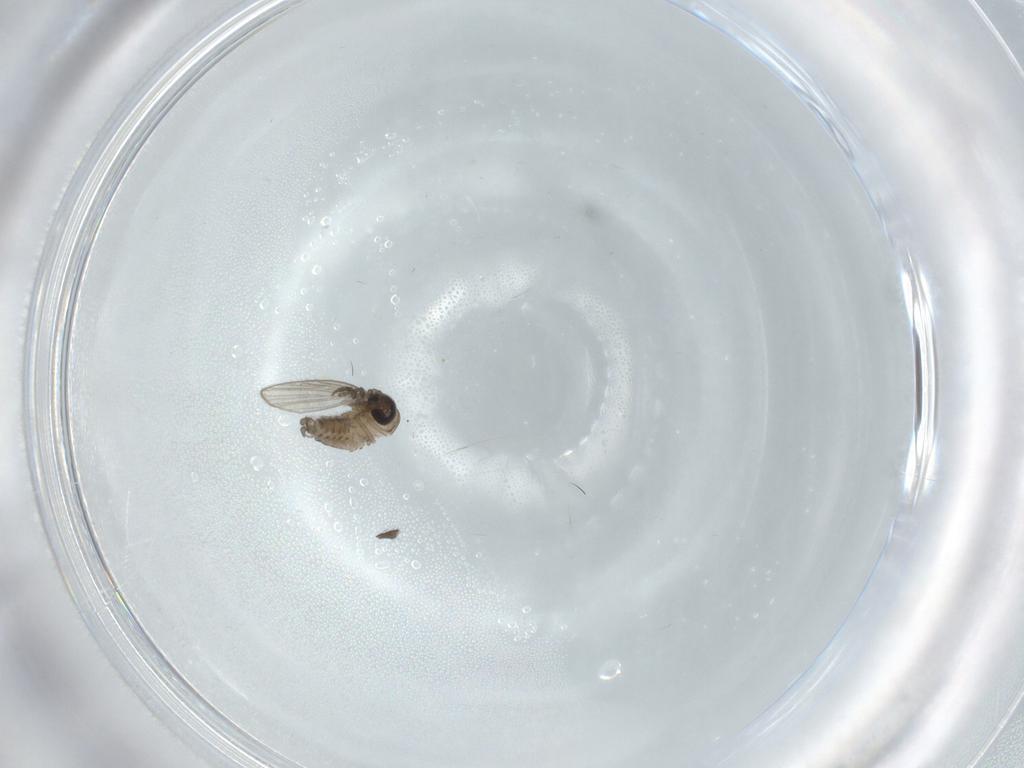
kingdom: Animalia
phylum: Arthropoda
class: Insecta
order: Diptera
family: Psychodidae
